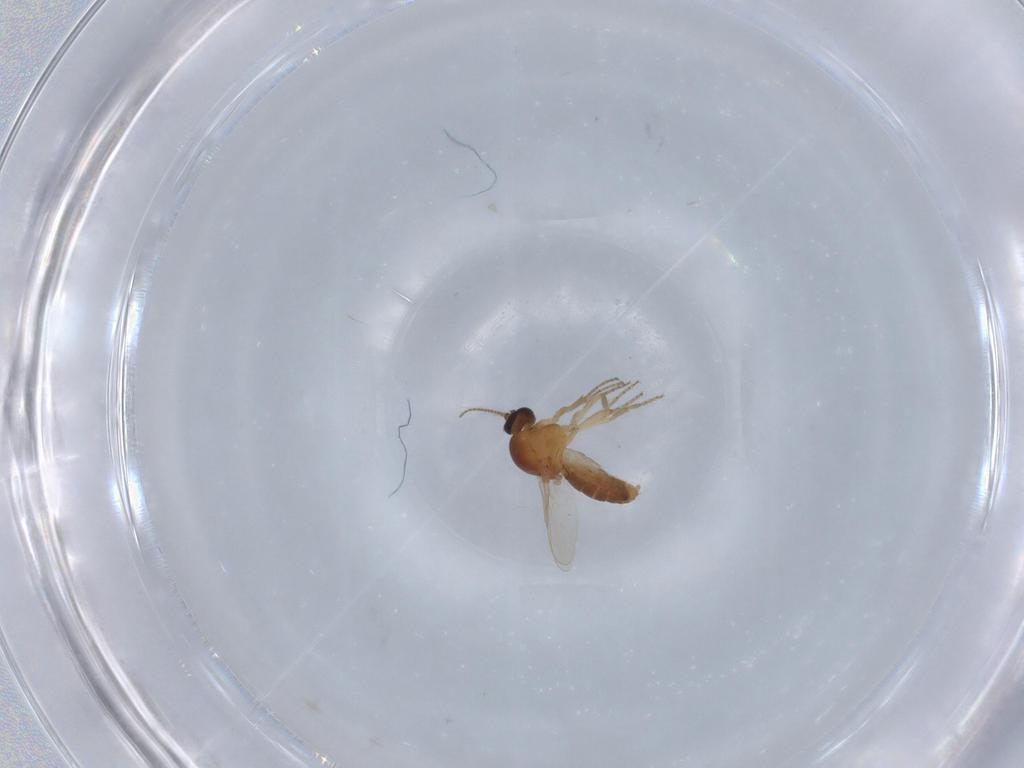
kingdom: Animalia
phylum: Arthropoda
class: Insecta
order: Diptera
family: Ceratopogonidae
